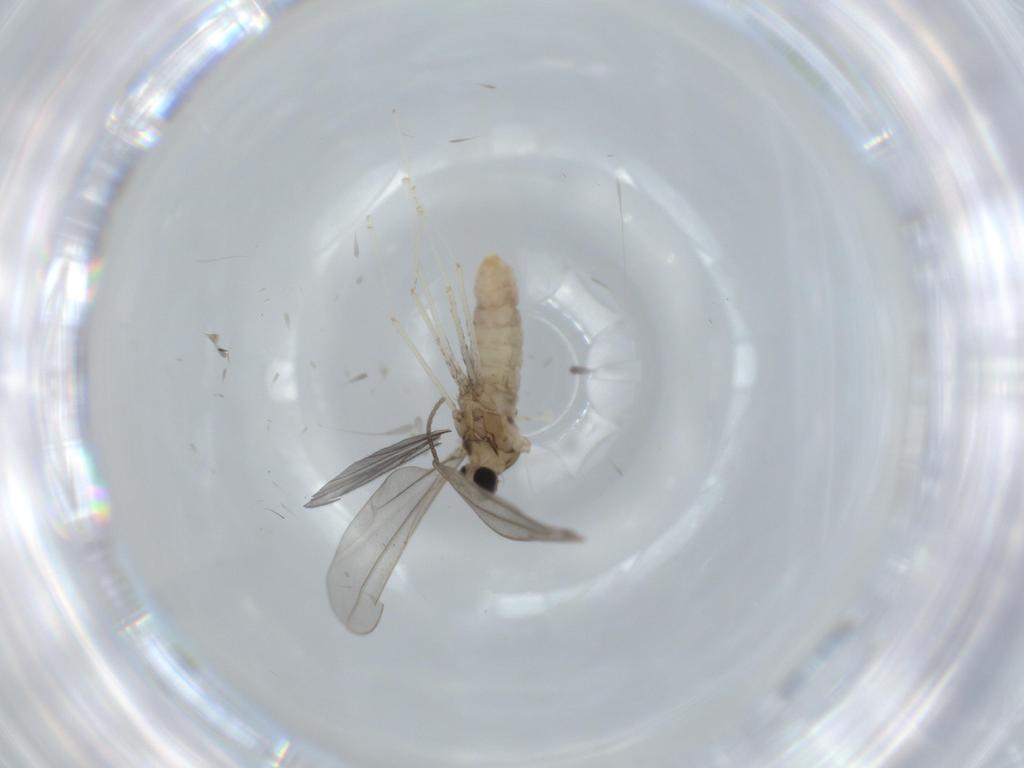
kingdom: Animalia
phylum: Arthropoda
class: Insecta
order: Diptera
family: Cecidomyiidae
